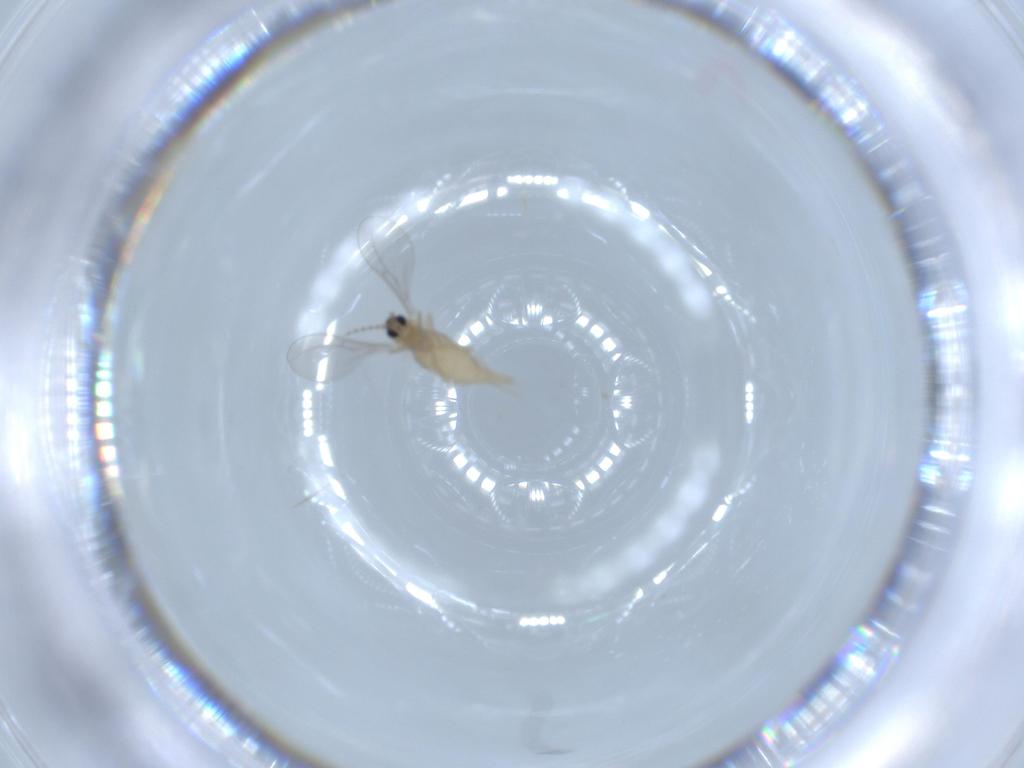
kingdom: Animalia
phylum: Arthropoda
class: Insecta
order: Diptera
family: Cecidomyiidae
